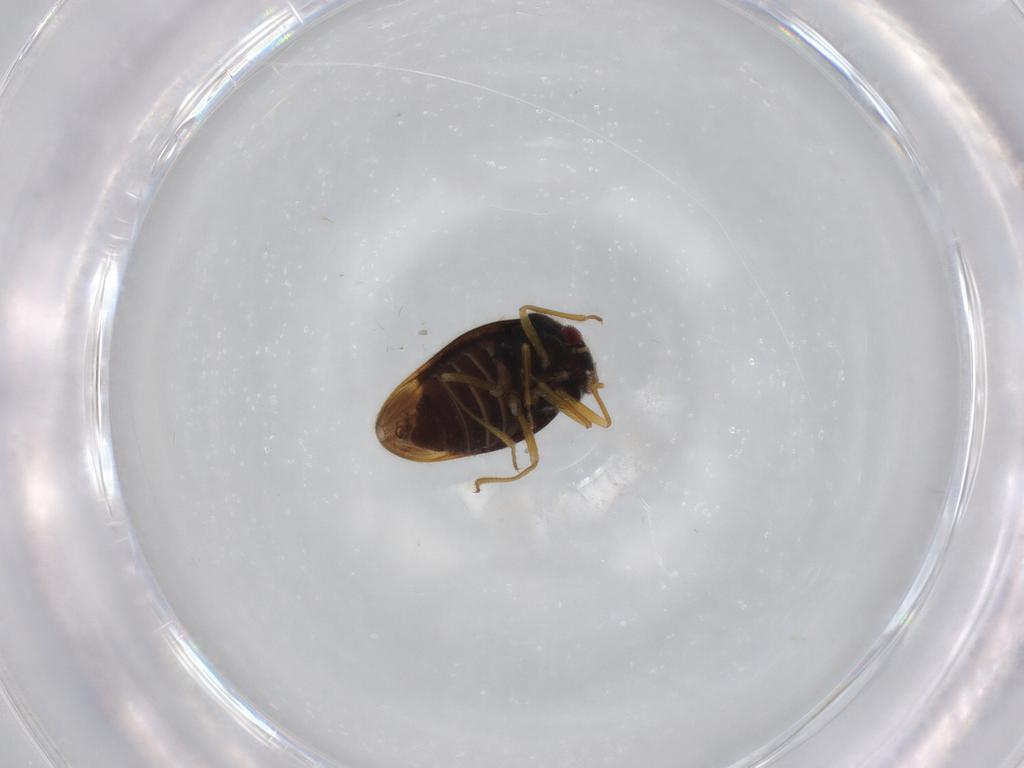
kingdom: Animalia
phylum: Arthropoda
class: Insecta
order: Hemiptera
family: Schizopteridae
